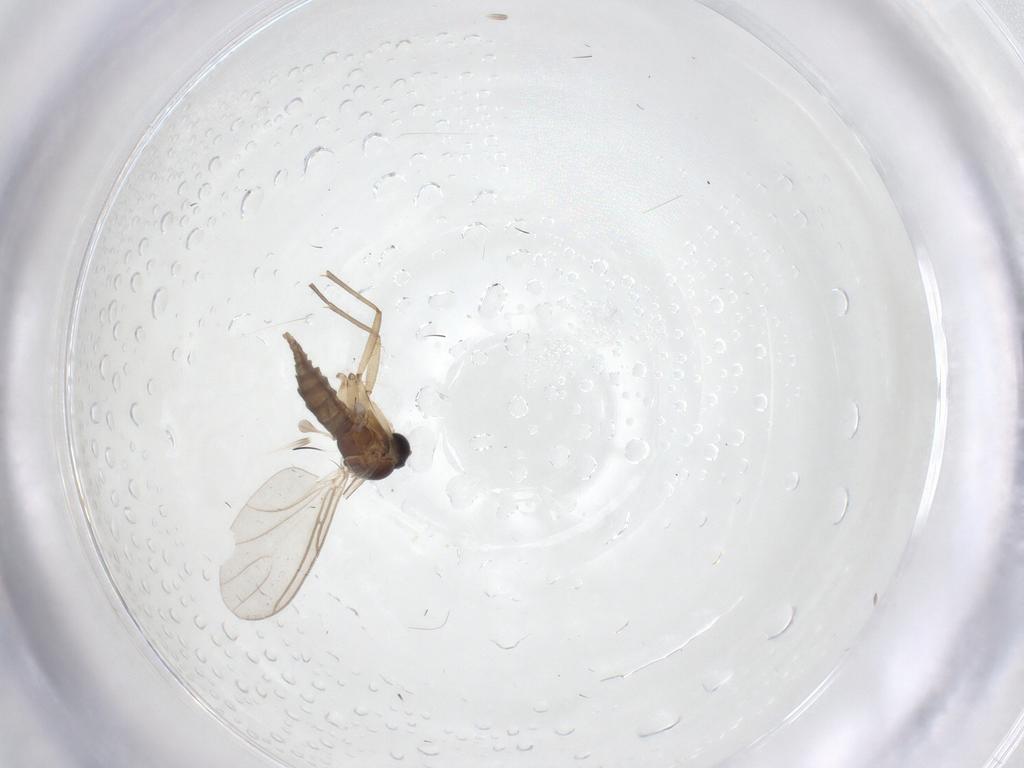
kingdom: Animalia
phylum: Arthropoda
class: Insecta
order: Diptera
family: Sciaridae
